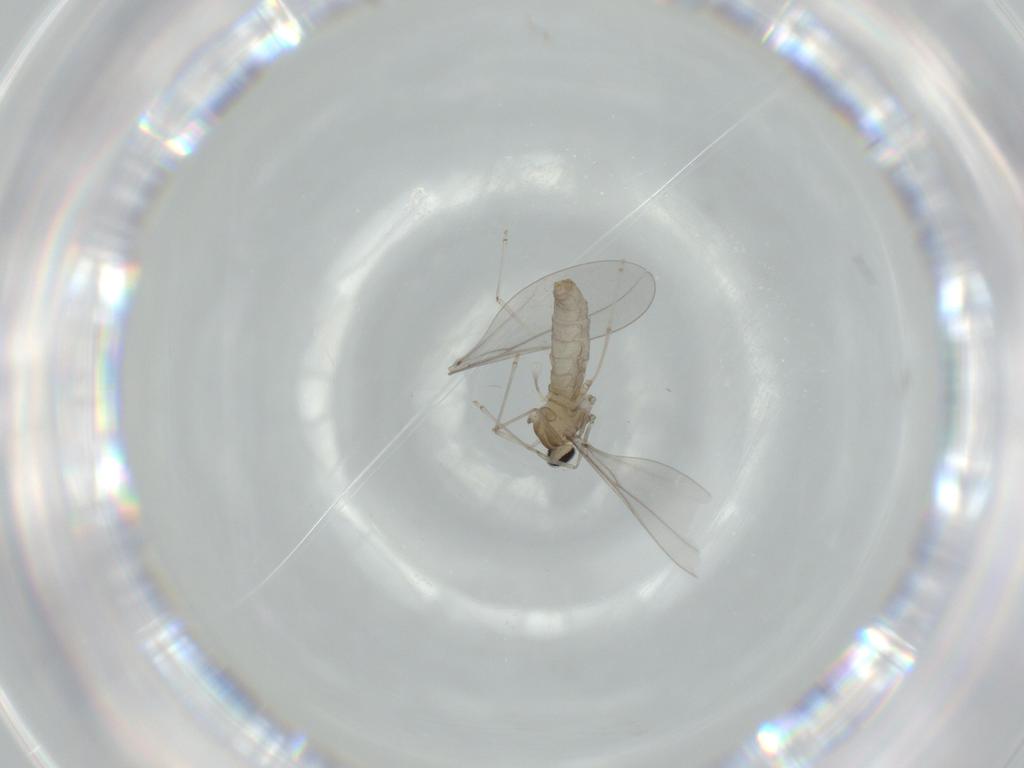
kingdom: Animalia
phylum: Arthropoda
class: Insecta
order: Diptera
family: Cecidomyiidae
